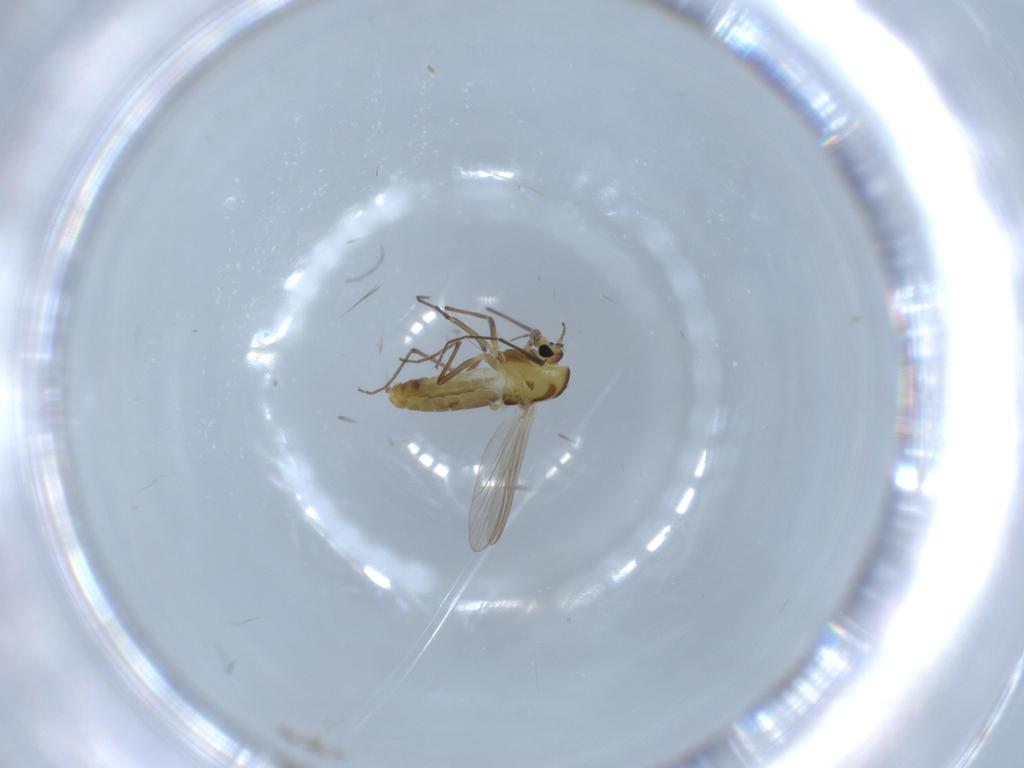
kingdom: Animalia
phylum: Arthropoda
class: Insecta
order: Diptera
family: Chironomidae
